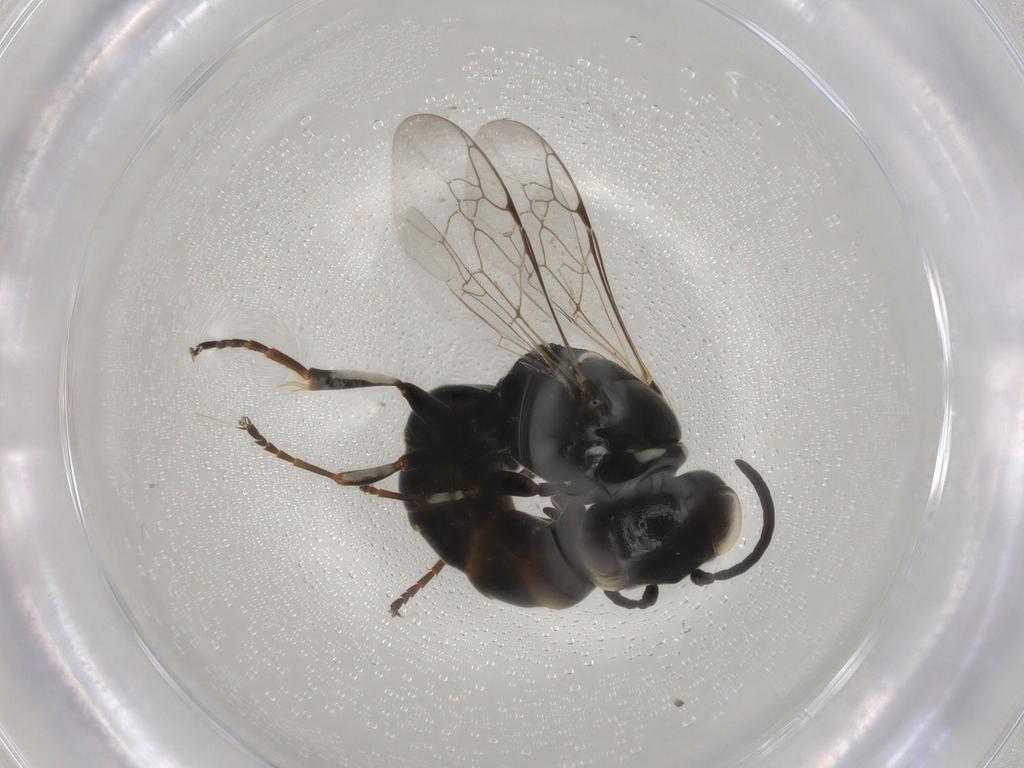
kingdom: Animalia
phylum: Arthropoda
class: Insecta
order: Hymenoptera
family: Crabronidae
